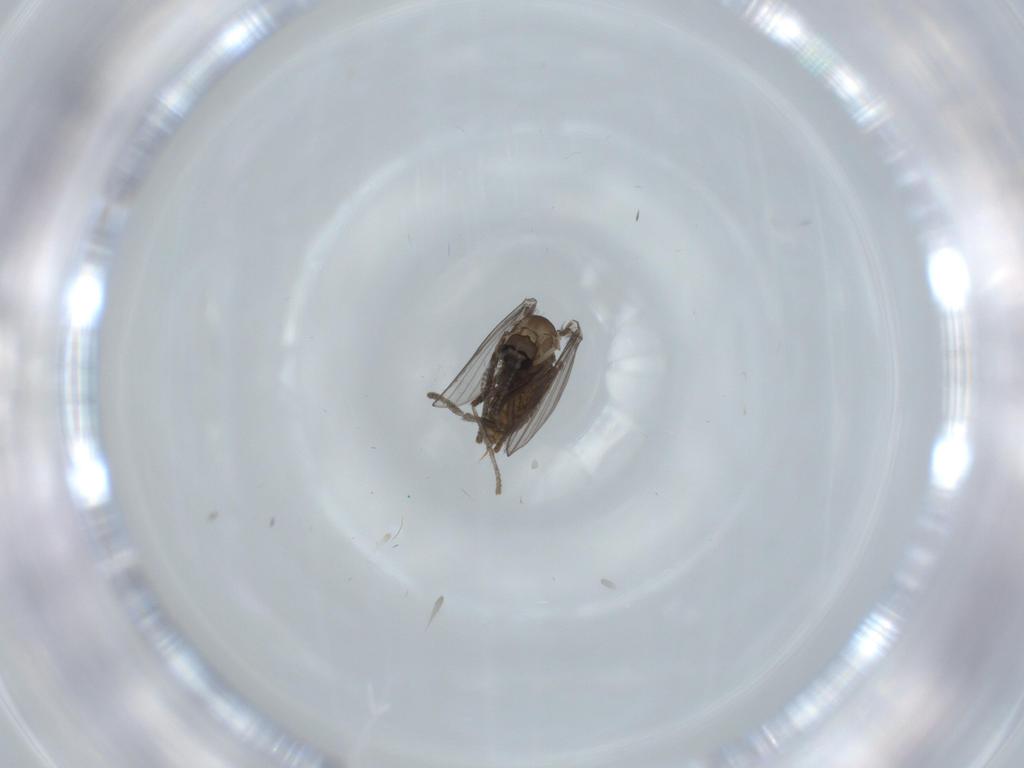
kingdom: Animalia
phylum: Arthropoda
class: Insecta
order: Diptera
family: Psychodidae
